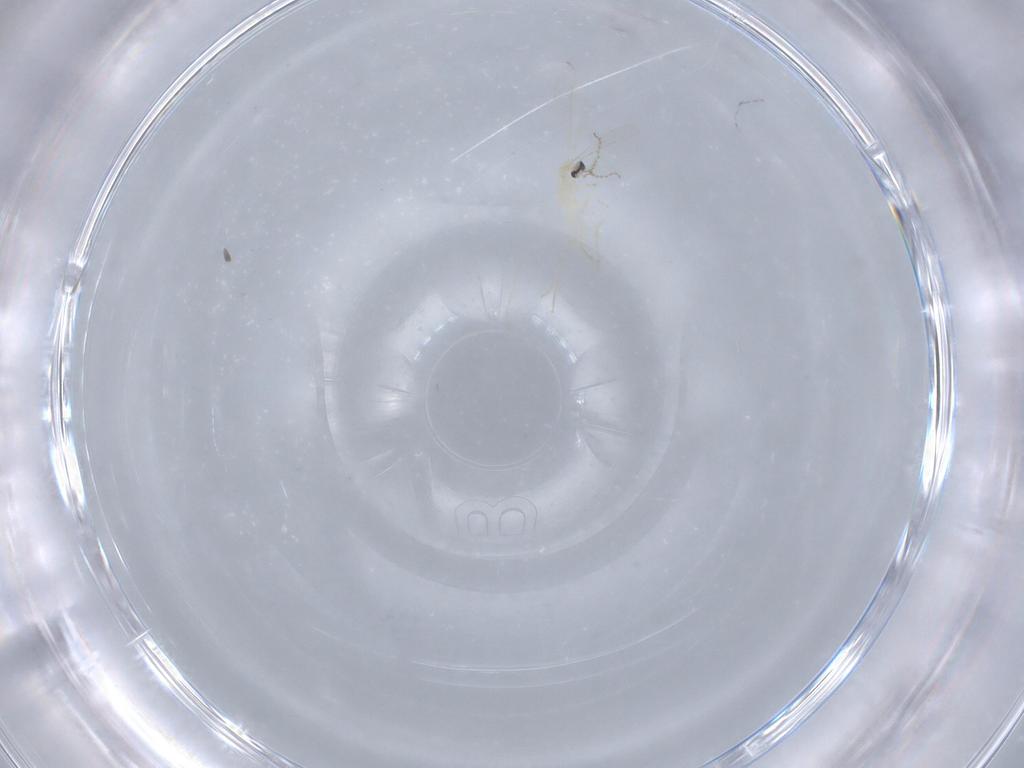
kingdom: Animalia
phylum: Arthropoda
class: Insecta
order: Diptera
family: Cecidomyiidae
